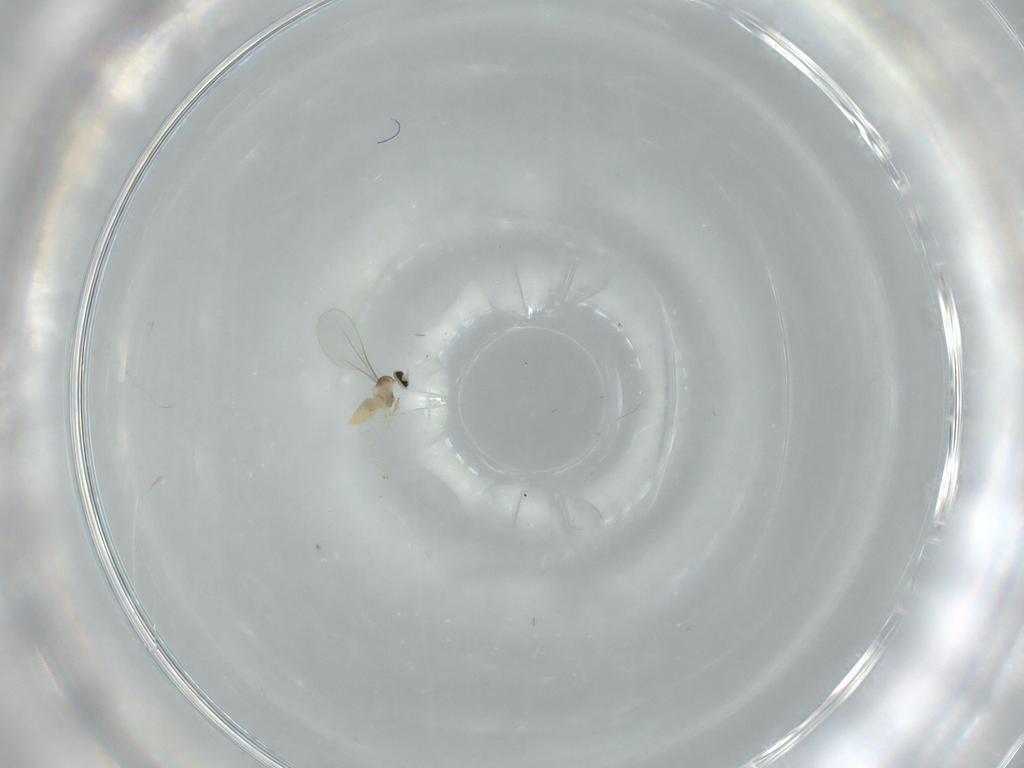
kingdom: Animalia
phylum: Arthropoda
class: Insecta
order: Diptera
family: Cecidomyiidae
